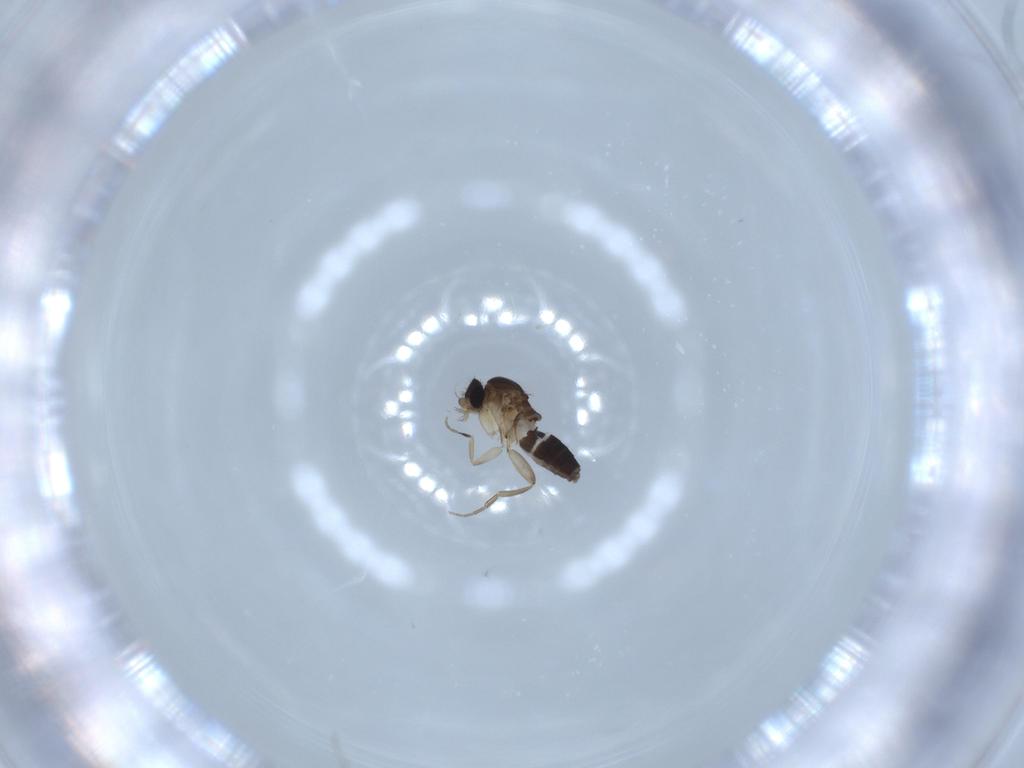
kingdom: Animalia
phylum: Arthropoda
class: Insecta
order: Diptera
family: Phoridae
